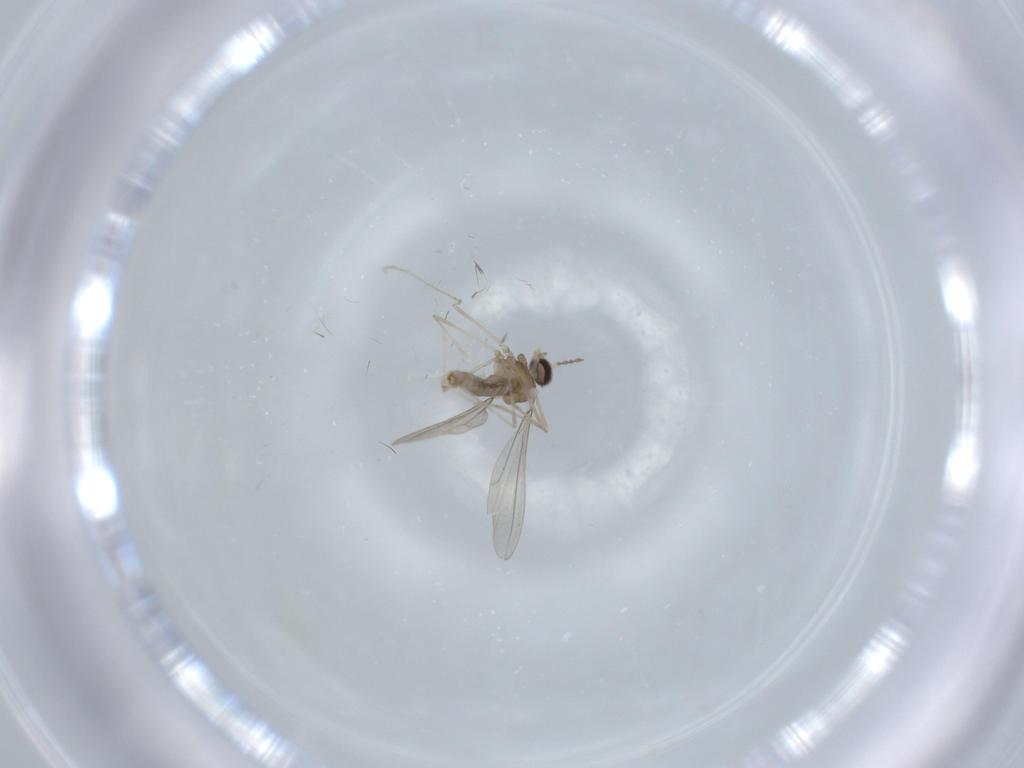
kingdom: Animalia
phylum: Arthropoda
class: Insecta
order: Diptera
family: Cecidomyiidae
